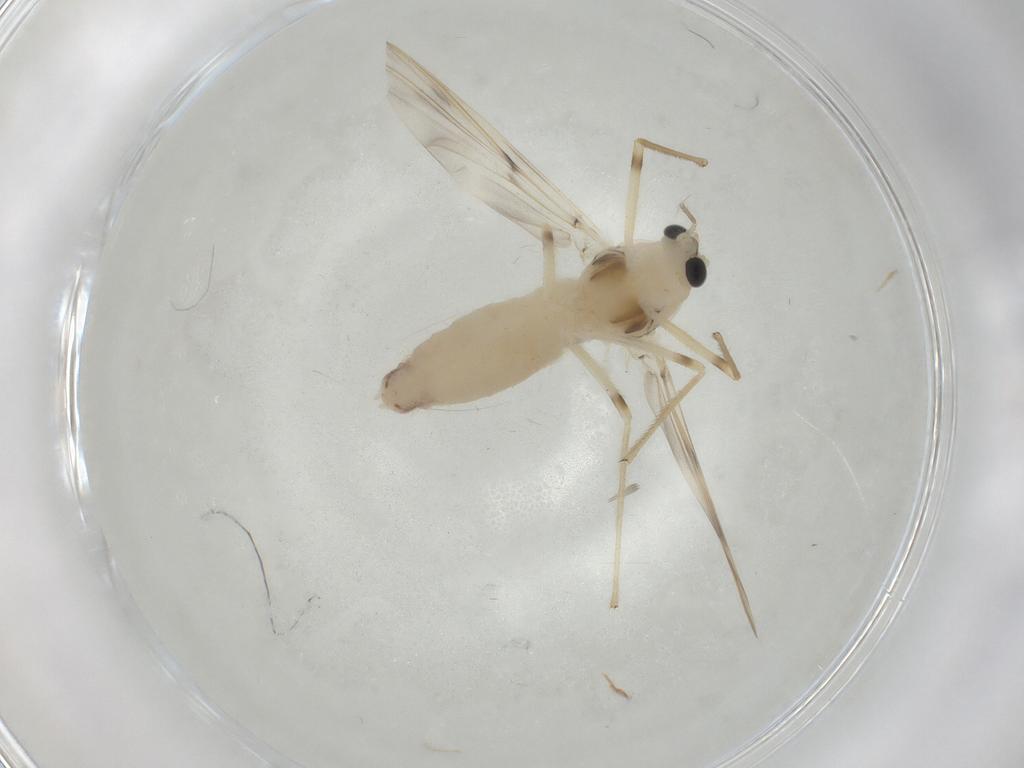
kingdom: Animalia
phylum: Arthropoda
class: Insecta
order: Diptera
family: Chironomidae
